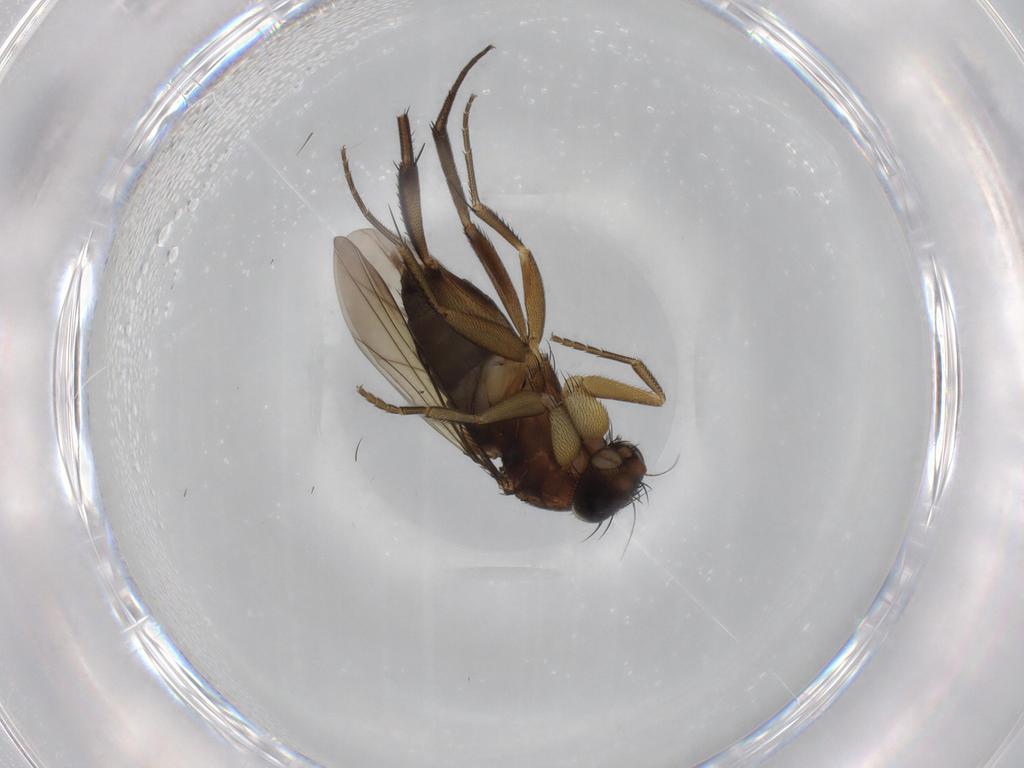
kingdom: Animalia
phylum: Arthropoda
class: Insecta
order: Diptera
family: Phoridae
